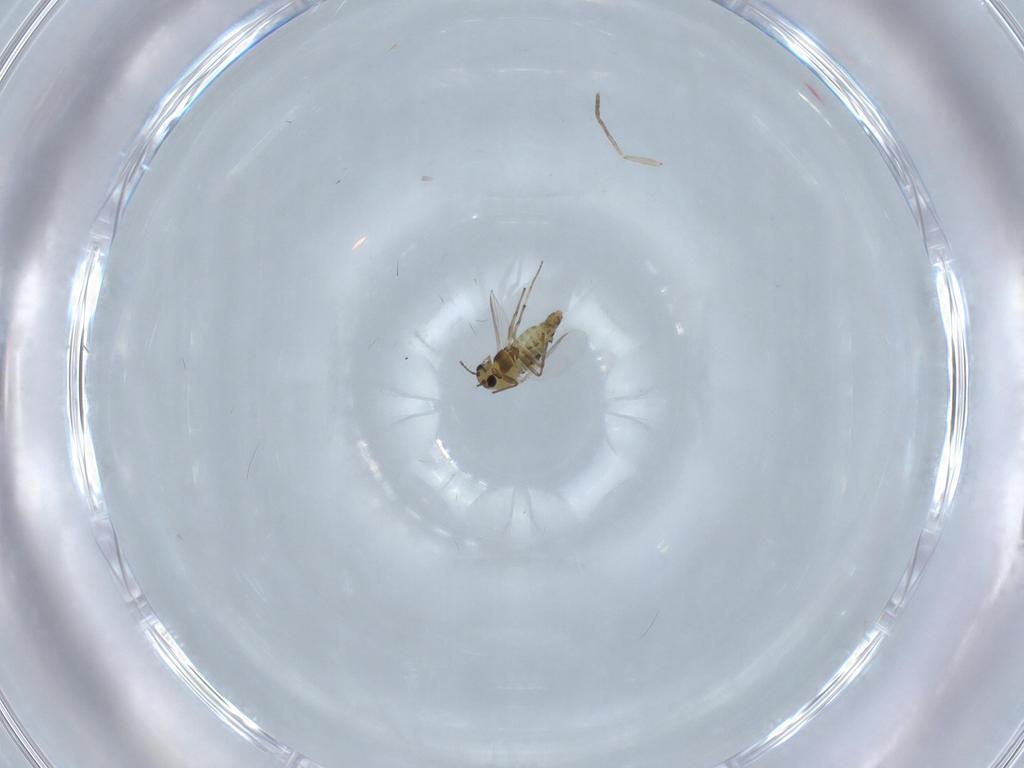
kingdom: Animalia
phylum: Arthropoda
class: Insecta
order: Diptera
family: Chironomidae
